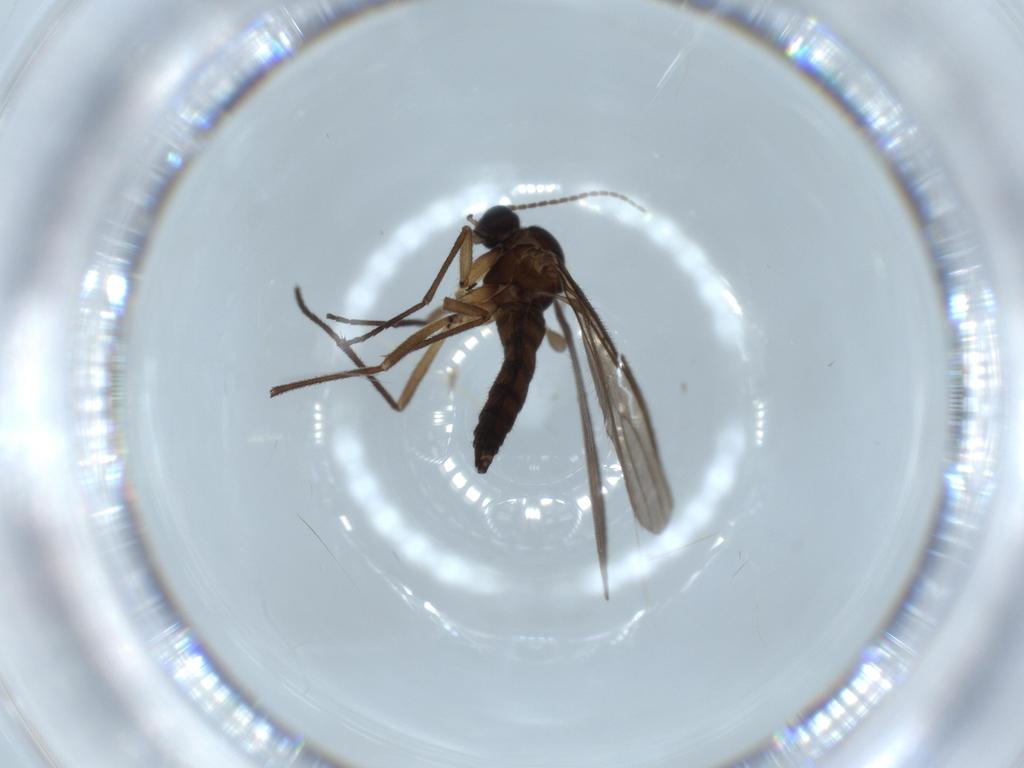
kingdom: Animalia
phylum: Arthropoda
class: Insecta
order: Diptera
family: Sciaridae
